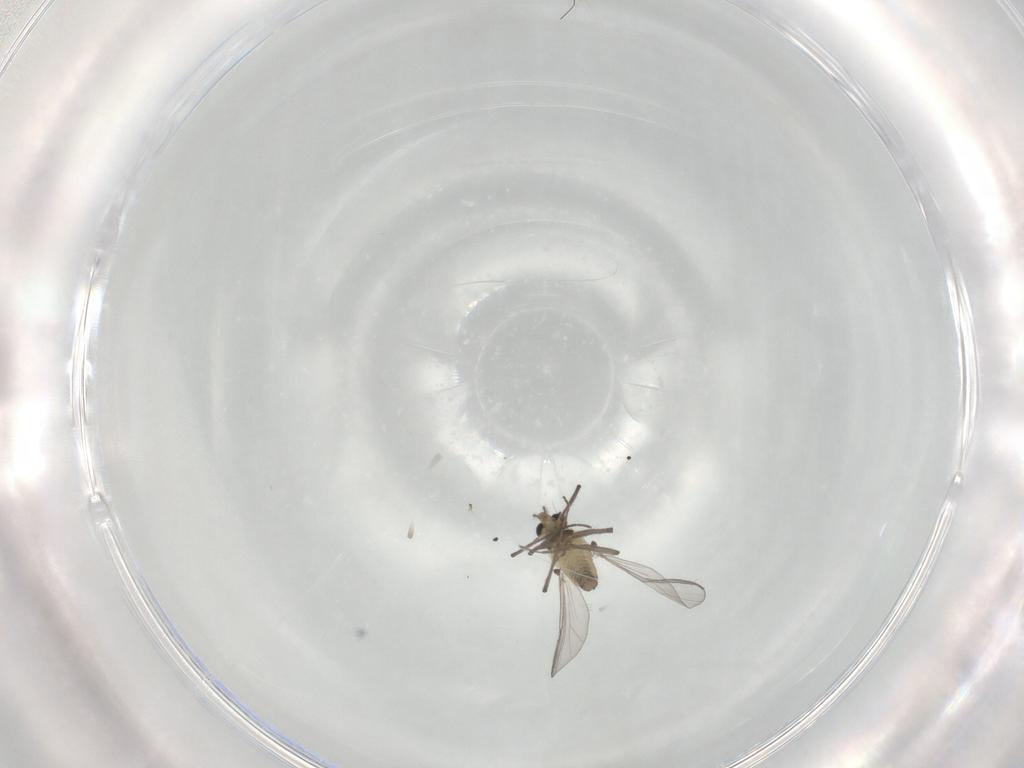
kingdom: Animalia
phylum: Arthropoda
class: Insecta
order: Diptera
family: Chironomidae
